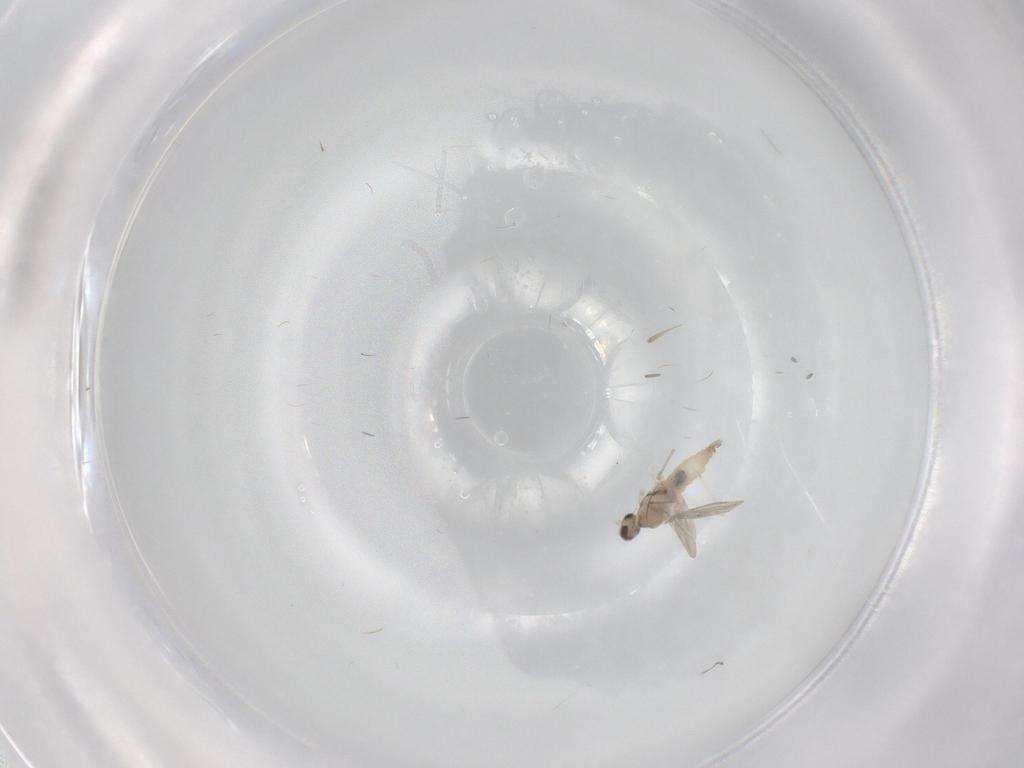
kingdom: Animalia
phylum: Arthropoda
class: Insecta
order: Diptera
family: Cecidomyiidae
